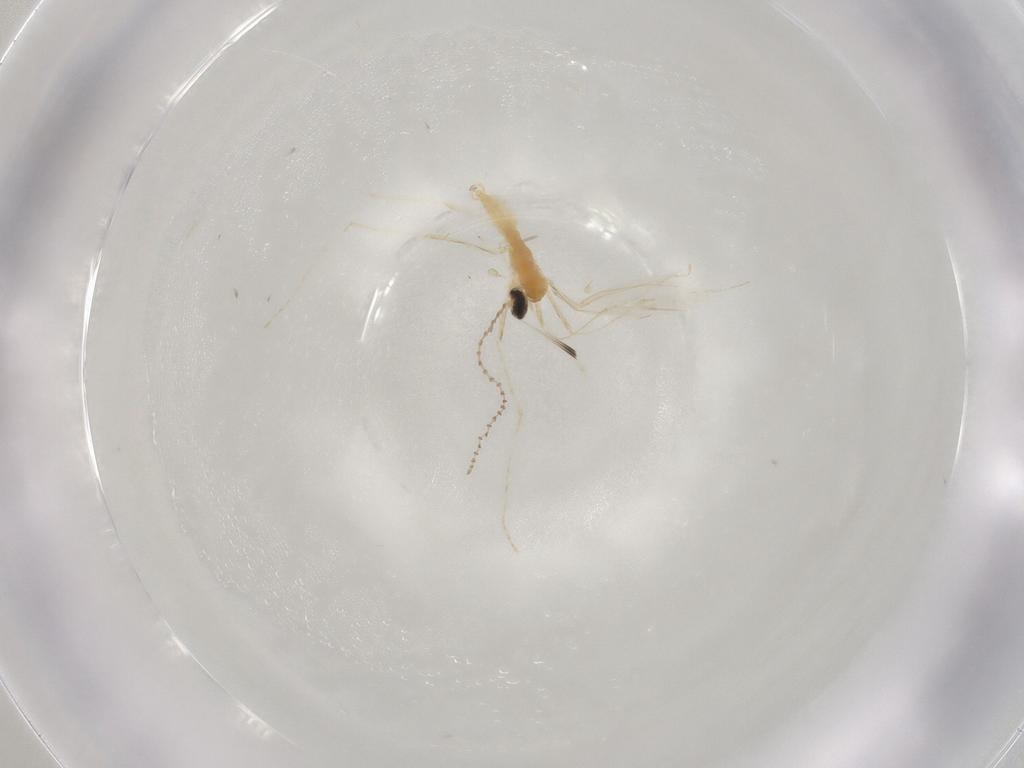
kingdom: Animalia
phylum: Arthropoda
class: Insecta
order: Diptera
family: Cecidomyiidae
